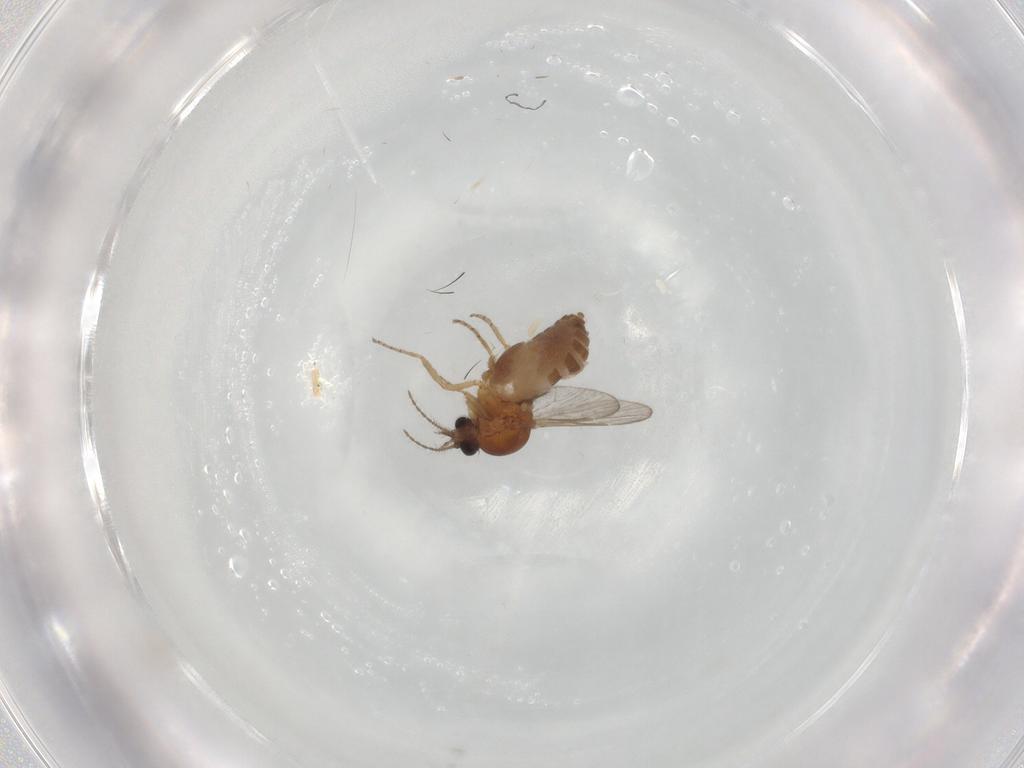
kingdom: Animalia
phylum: Arthropoda
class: Insecta
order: Diptera
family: Ceratopogonidae
